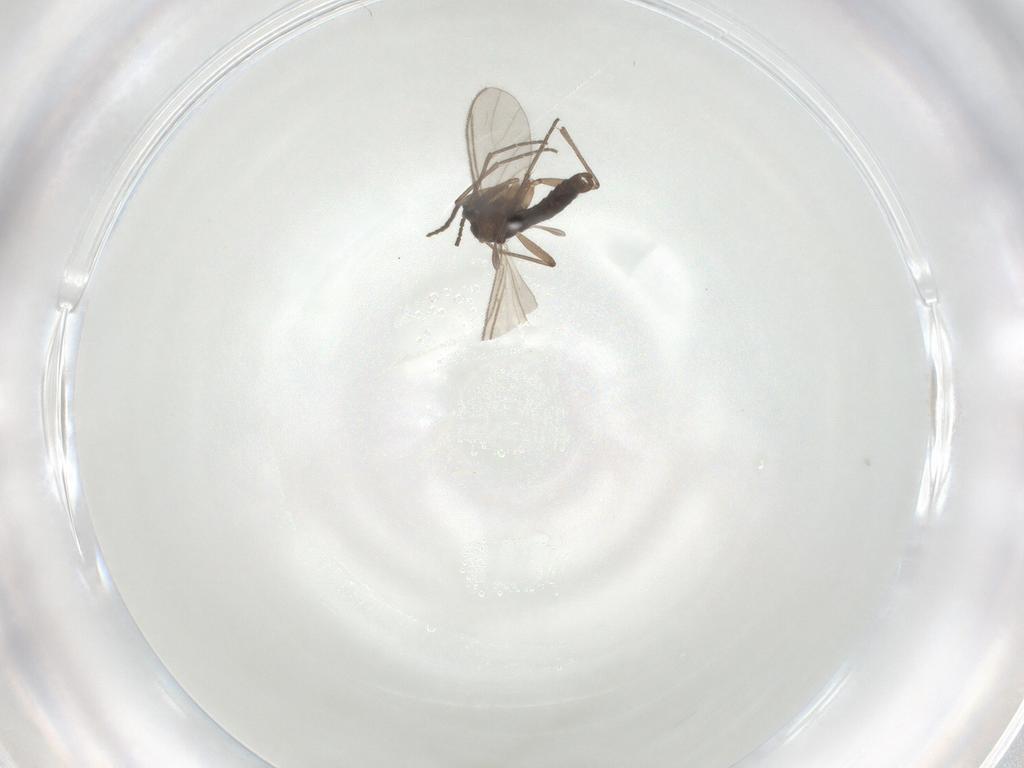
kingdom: Animalia
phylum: Arthropoda
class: Insecta
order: Diptera
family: Sciaridae
